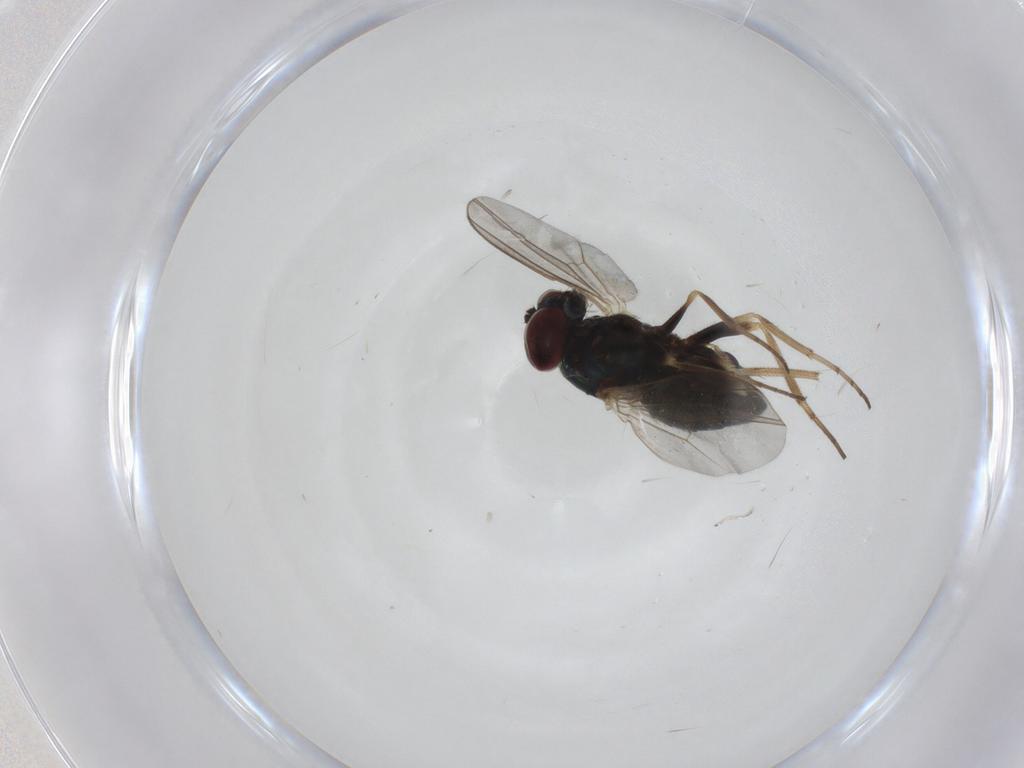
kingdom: Animalia
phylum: Arthropoda
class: Insecta
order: Diptera
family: Dolichopodidae
